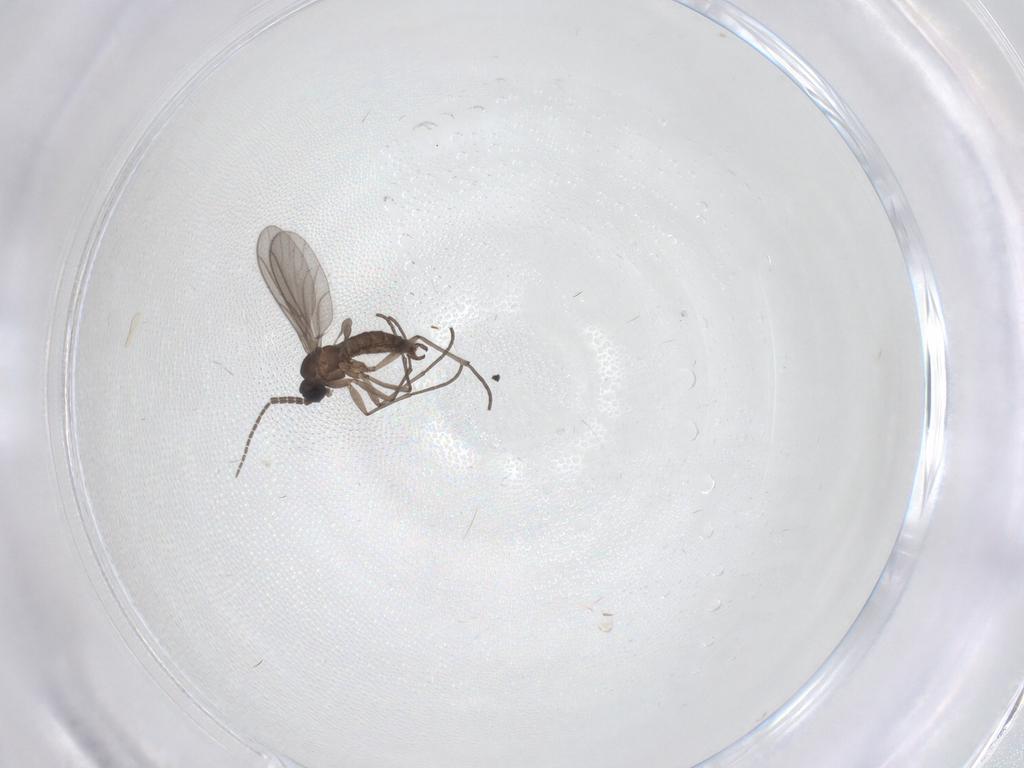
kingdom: Animalia
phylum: Arthropoda
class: Insecta
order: Diptera
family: Sciaridae
